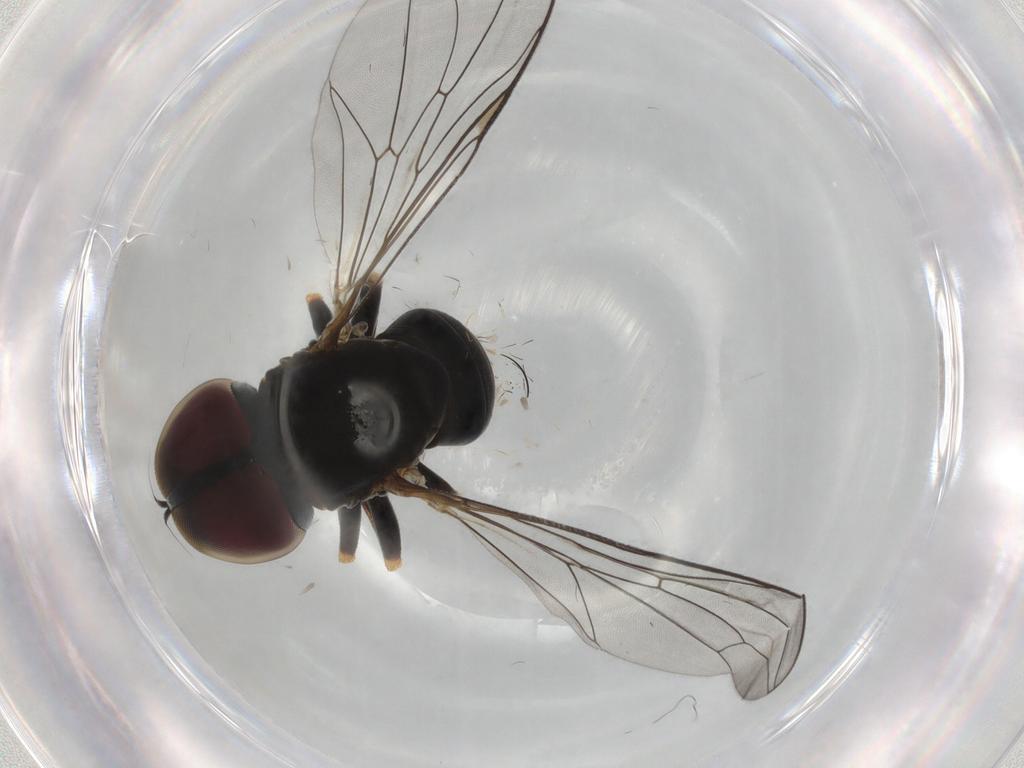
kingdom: Animalia
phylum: Arthropoda
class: Insecta
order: Diptera
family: Pipunculidae
